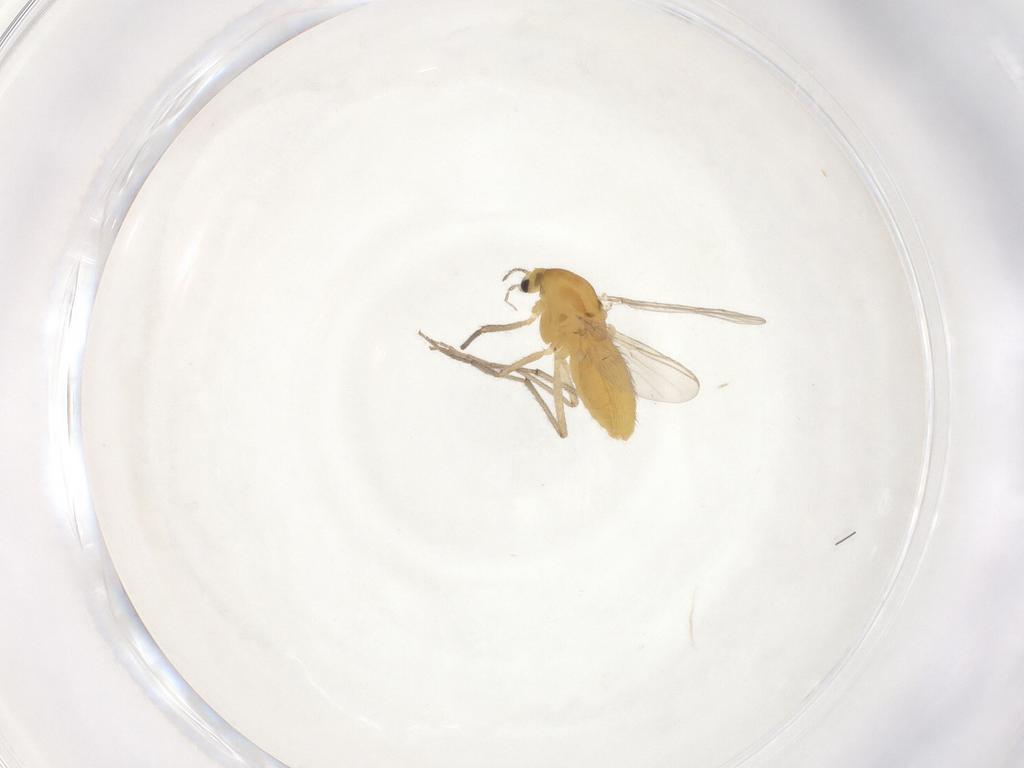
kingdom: Animalia
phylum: Arthropoda
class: Insecta
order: Diptera
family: Chironomidae
